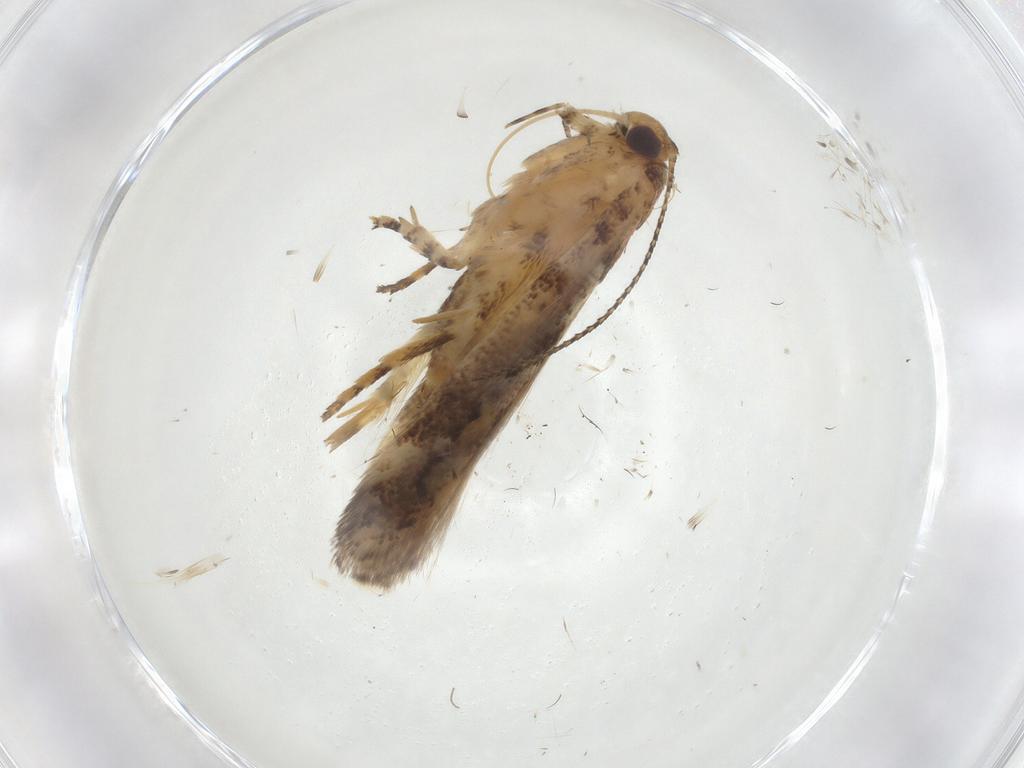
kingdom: Animalia
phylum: Arthropoda
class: Insecta
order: Lepidoptera
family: Gelechiidae
